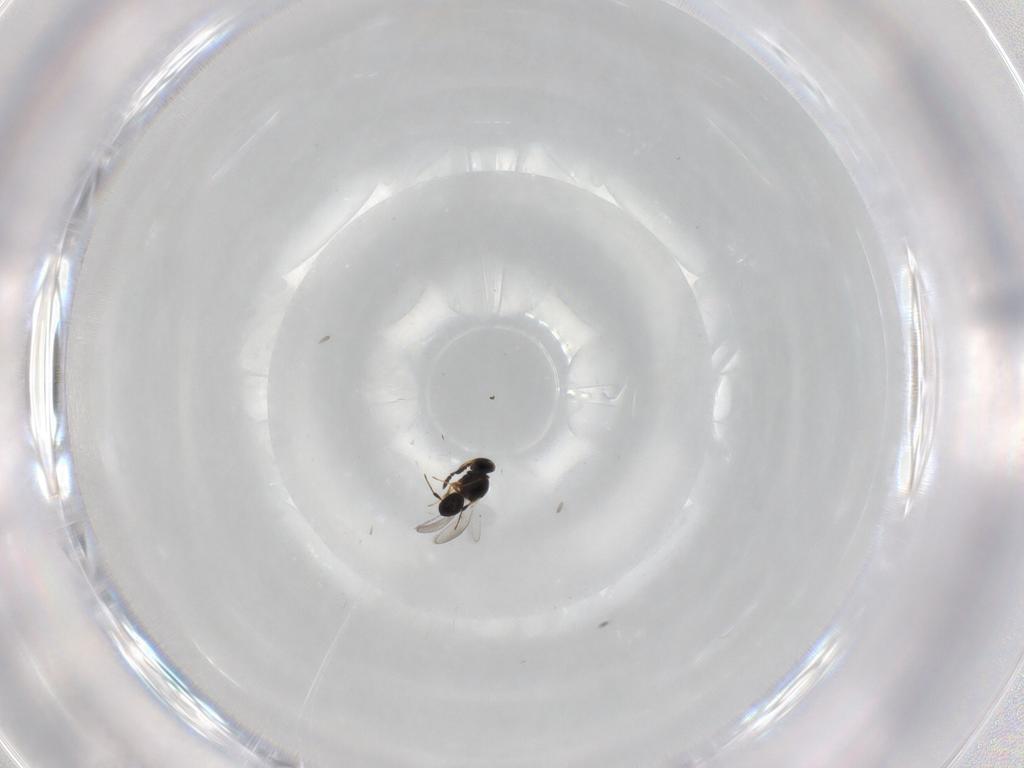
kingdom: Animalia
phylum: Arthropoda
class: Insecta
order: Hymenoptera
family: Platygastridae
